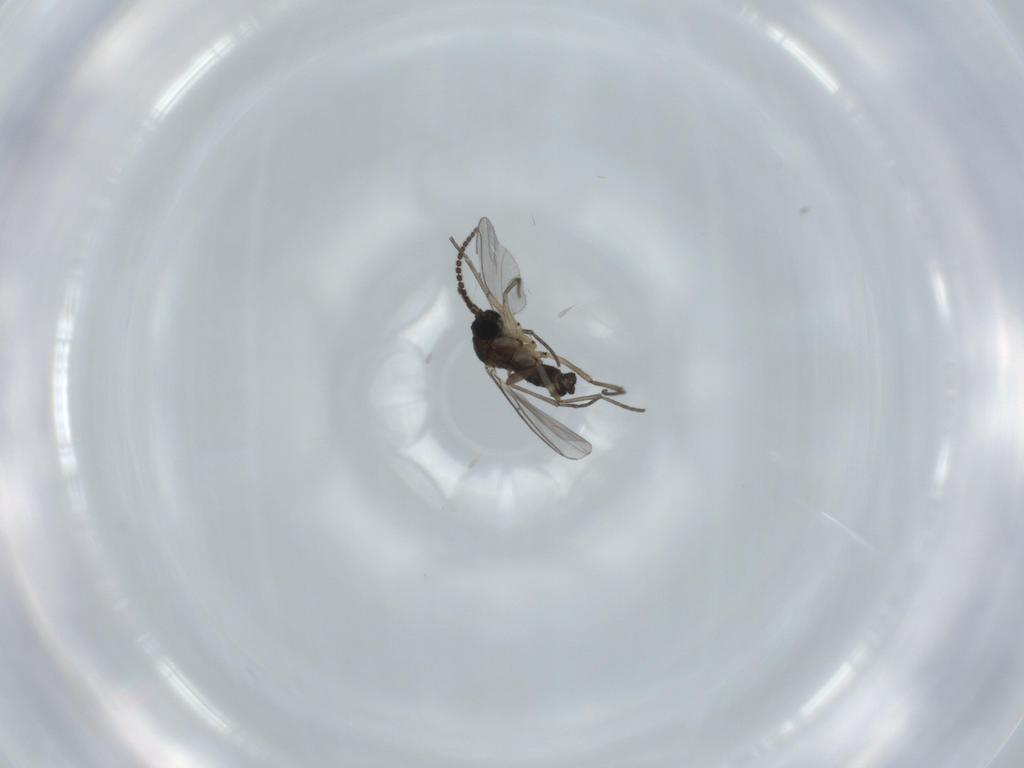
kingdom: Animalia
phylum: Arthropoda
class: Insecta
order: Diptera
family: Sciaridae
